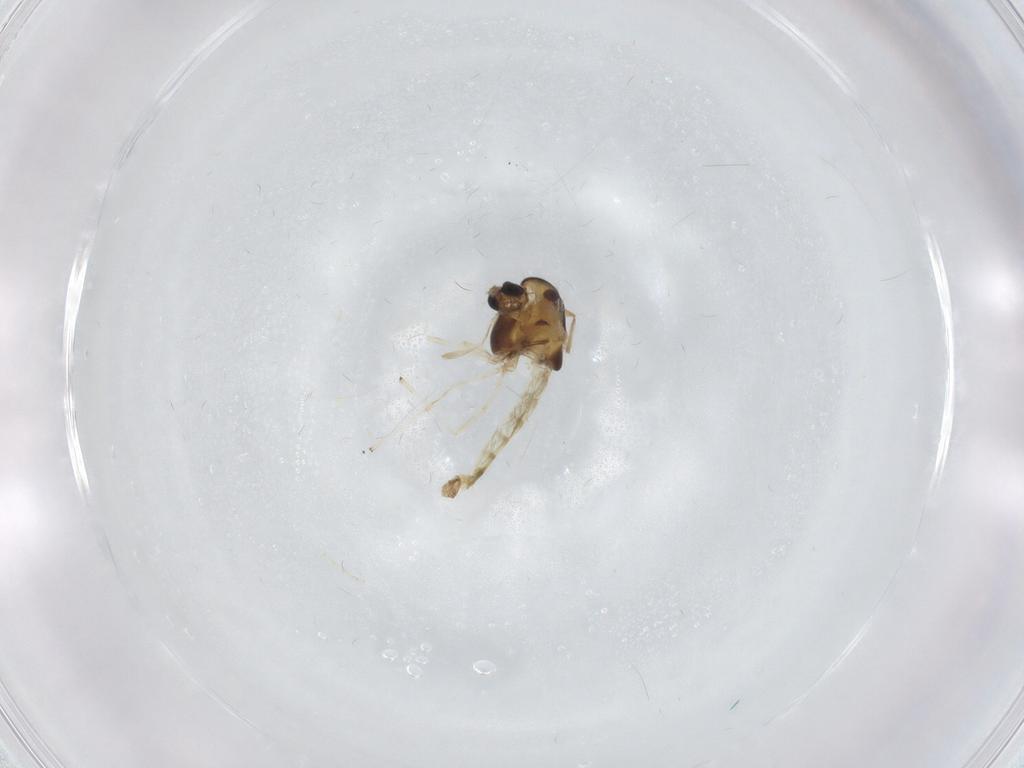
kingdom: Animalia
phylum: Arthropoda
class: Insecta
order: Diptera
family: Chironomidae
